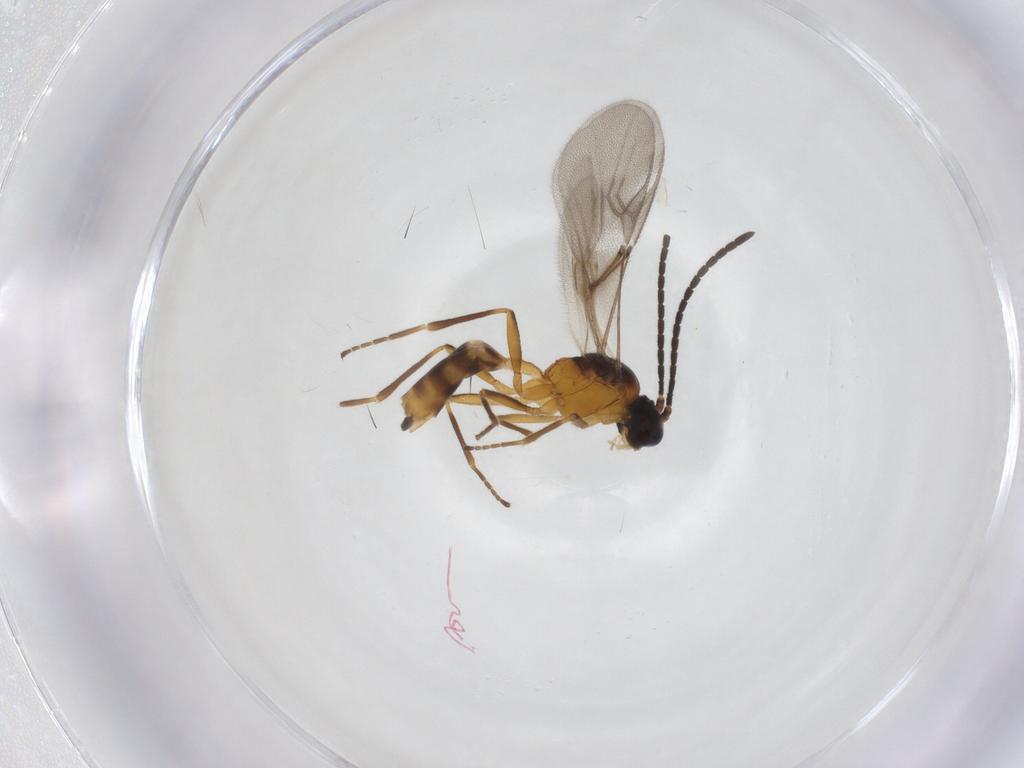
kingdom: Animalia
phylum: Arthropoda
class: Insecta
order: Hymenoptera
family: Braconidae
